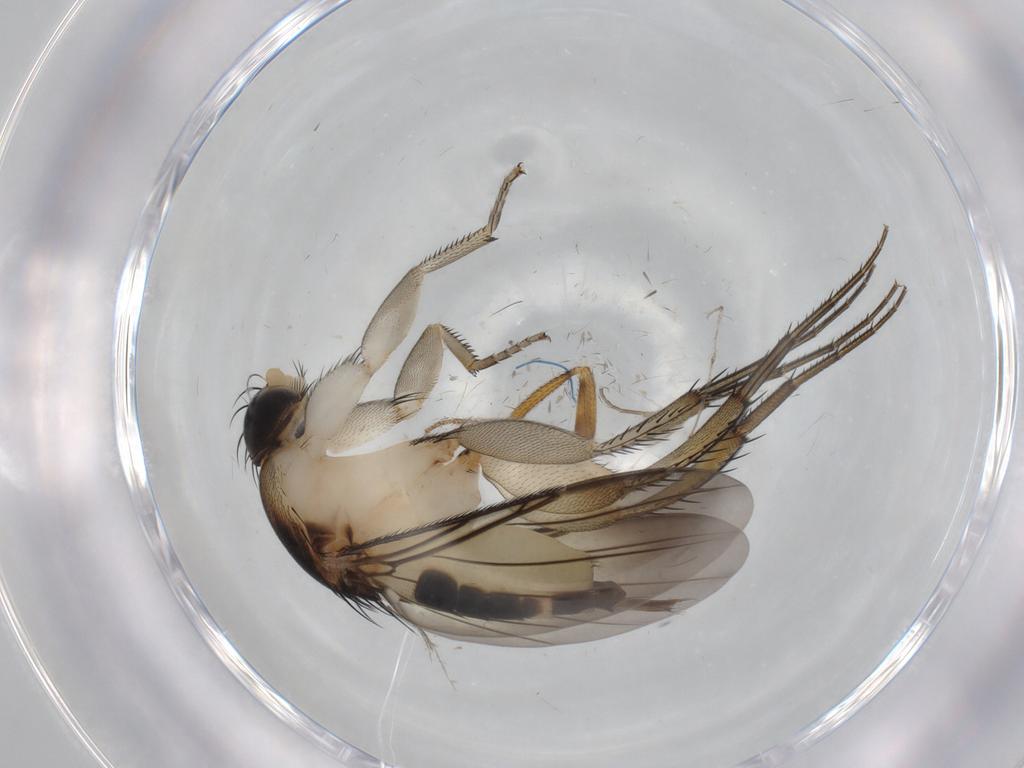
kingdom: Animalia
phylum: Arthropoda
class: Insecta
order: Diptera
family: Phoridae
